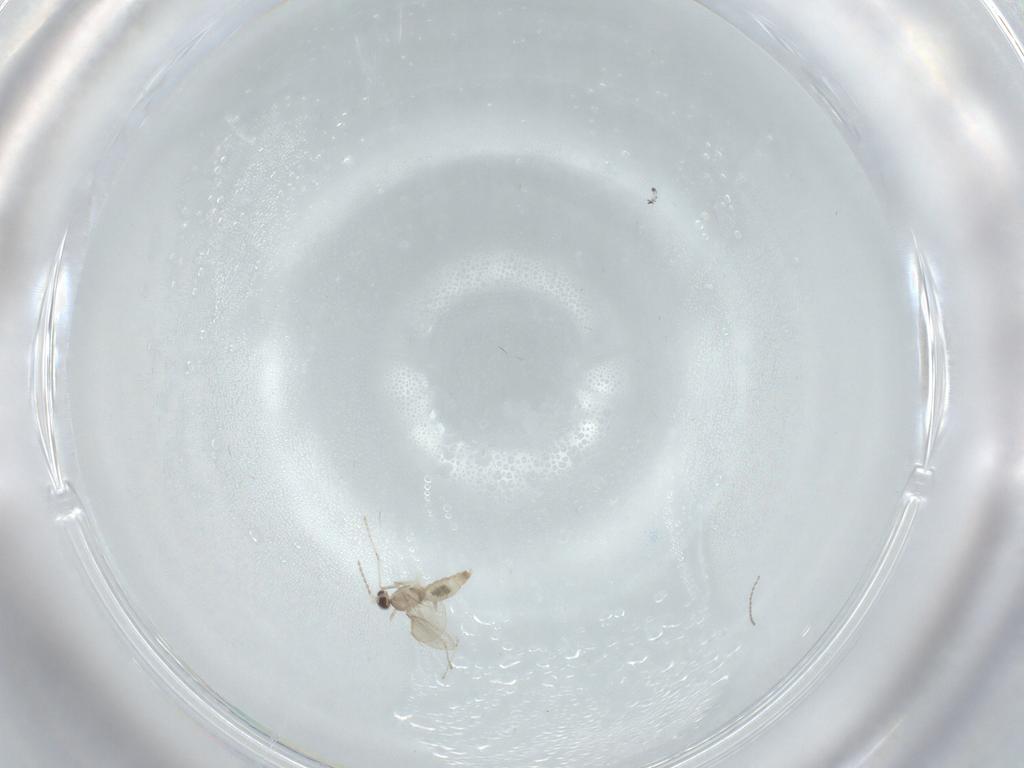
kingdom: Animalia
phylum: Arthropoda
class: Insecta
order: Diptera
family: Cecidomyiidae
